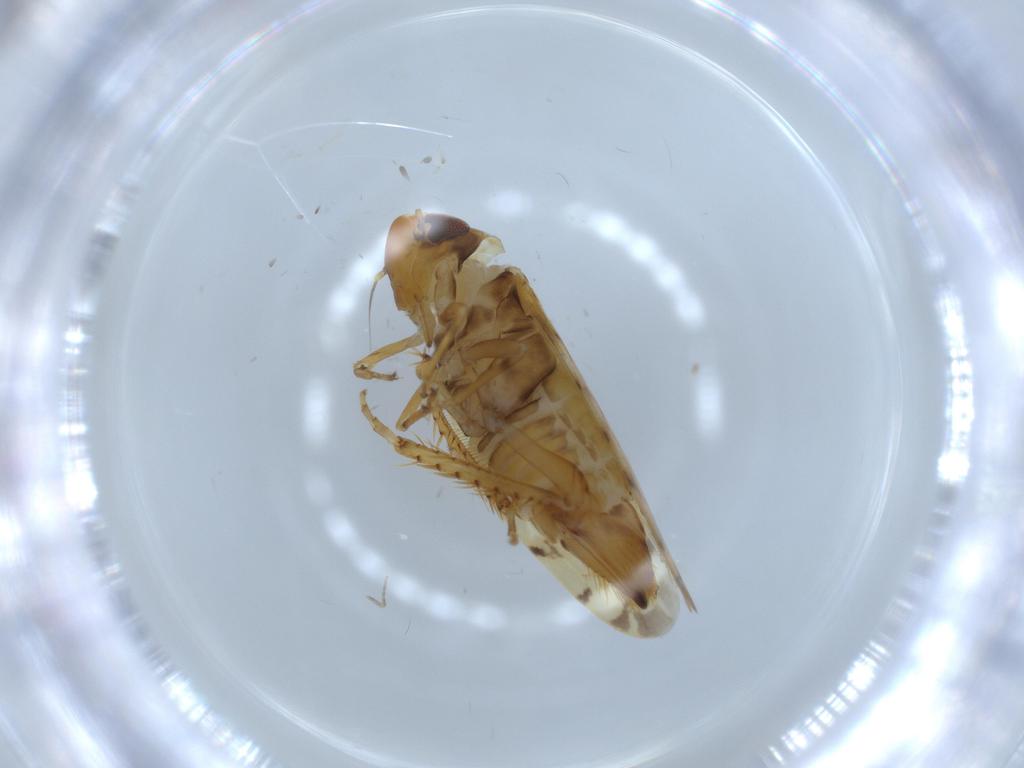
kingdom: Animalia
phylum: Arthropoda
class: Insecta
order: Hemiptera
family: Cicadellidae
